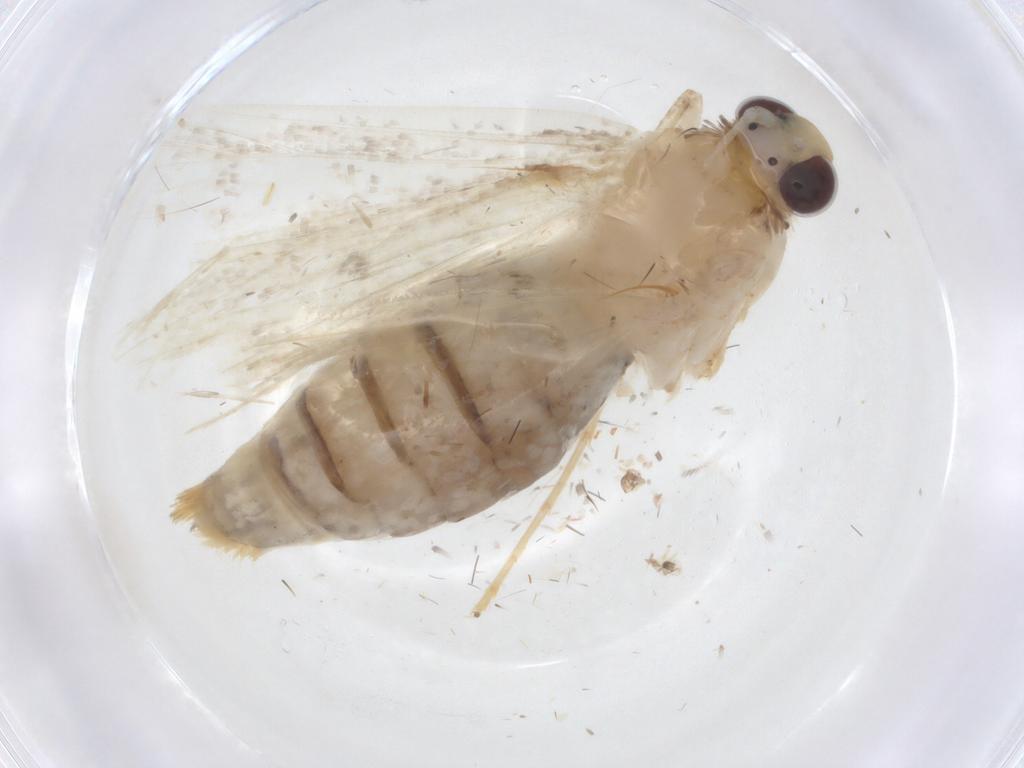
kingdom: Animalia
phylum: Arthropoda
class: Insecta
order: Lepidoptera
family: Crambidae
